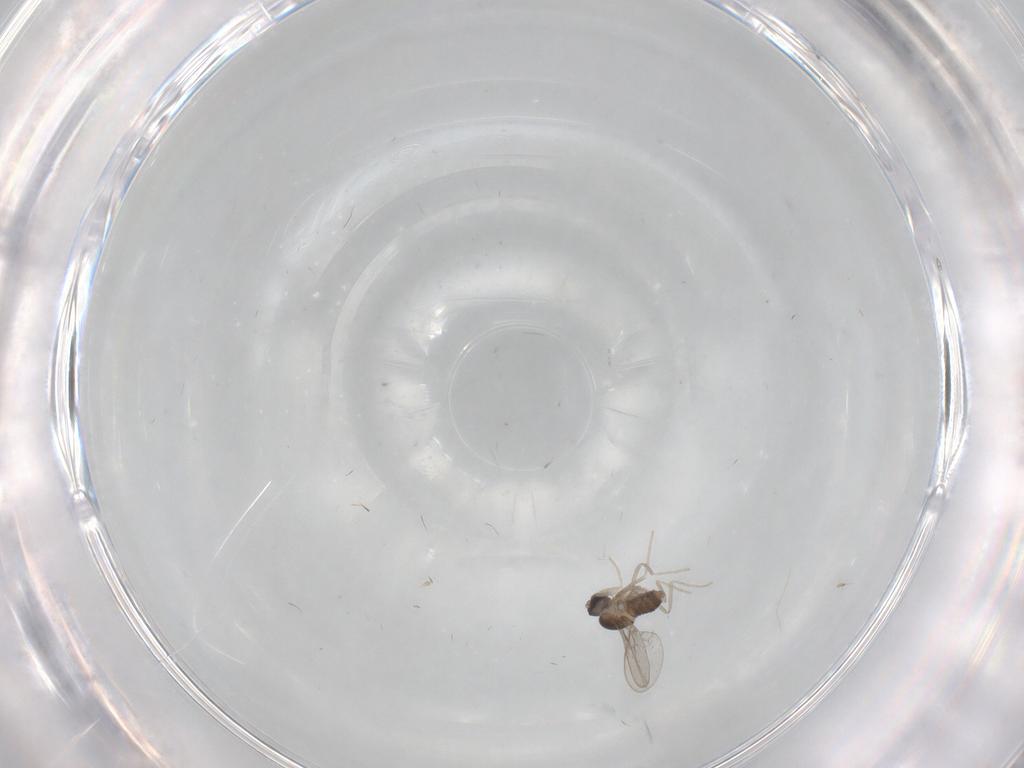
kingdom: Animalia
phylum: Arthropoda
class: Insecta
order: Diptera
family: Cecidomyiidae
